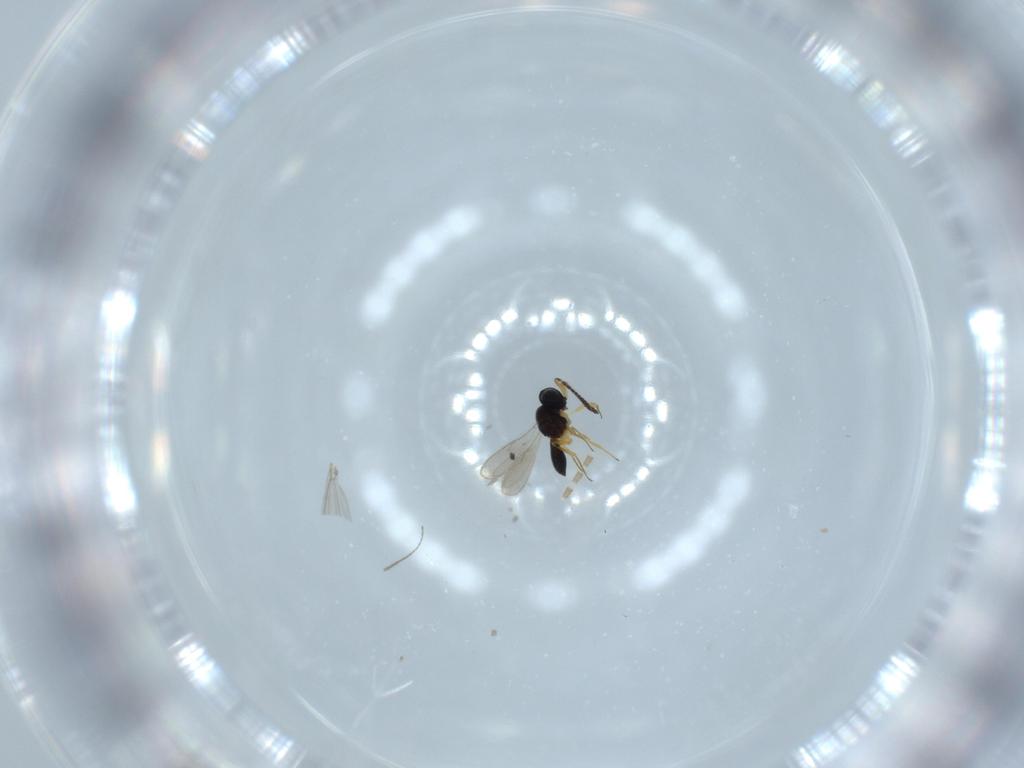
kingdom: Animalia
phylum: Arthropoda
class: Insecta
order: Hymenoptera
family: Scelionidae
